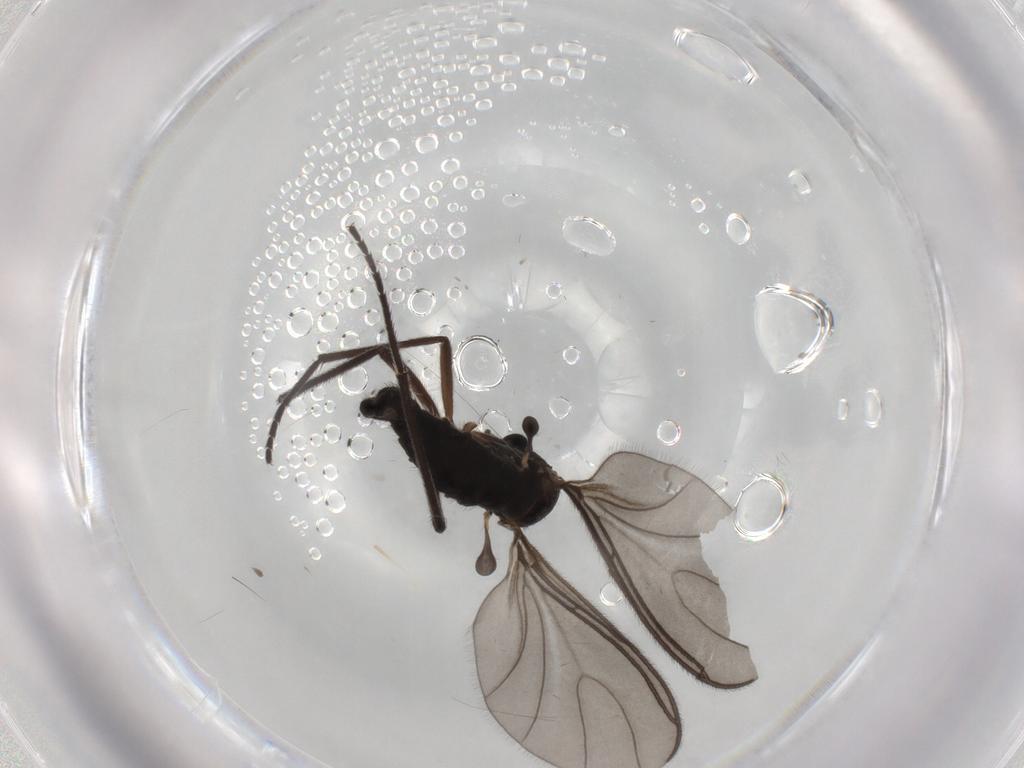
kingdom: Animalia
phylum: Arthropoda
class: Insecta
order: Diptera
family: Sciaridae
